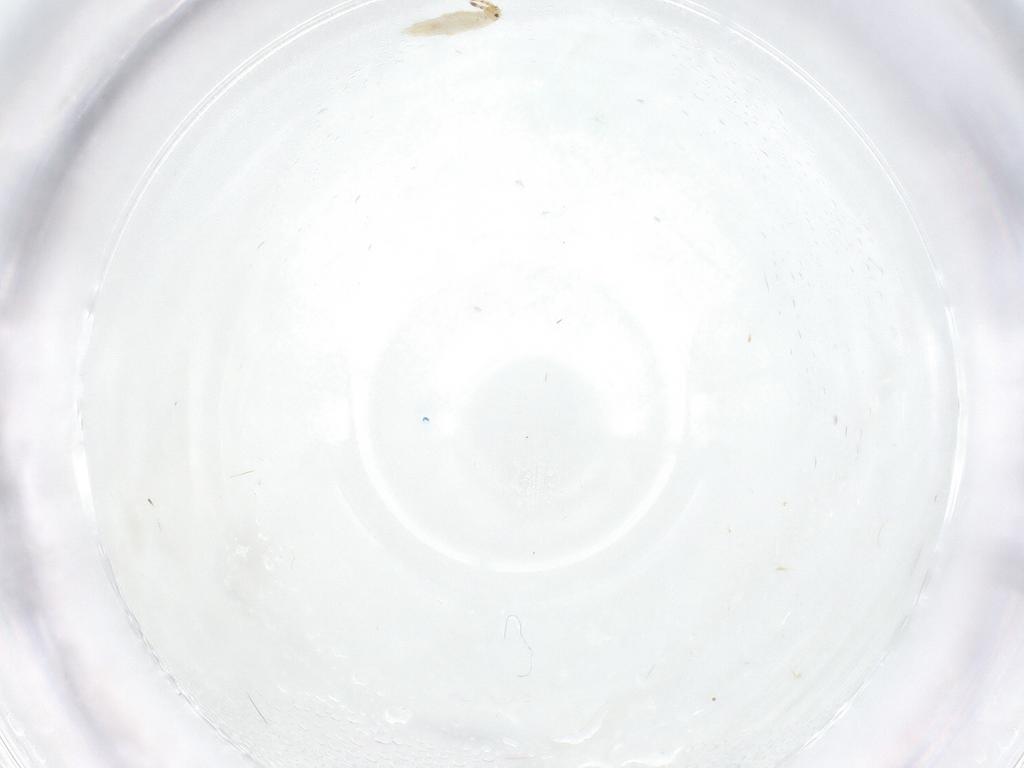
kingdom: Animalia
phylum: Arthropoda
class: Collembola
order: Entomobryomorpha
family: Entomobryidae
